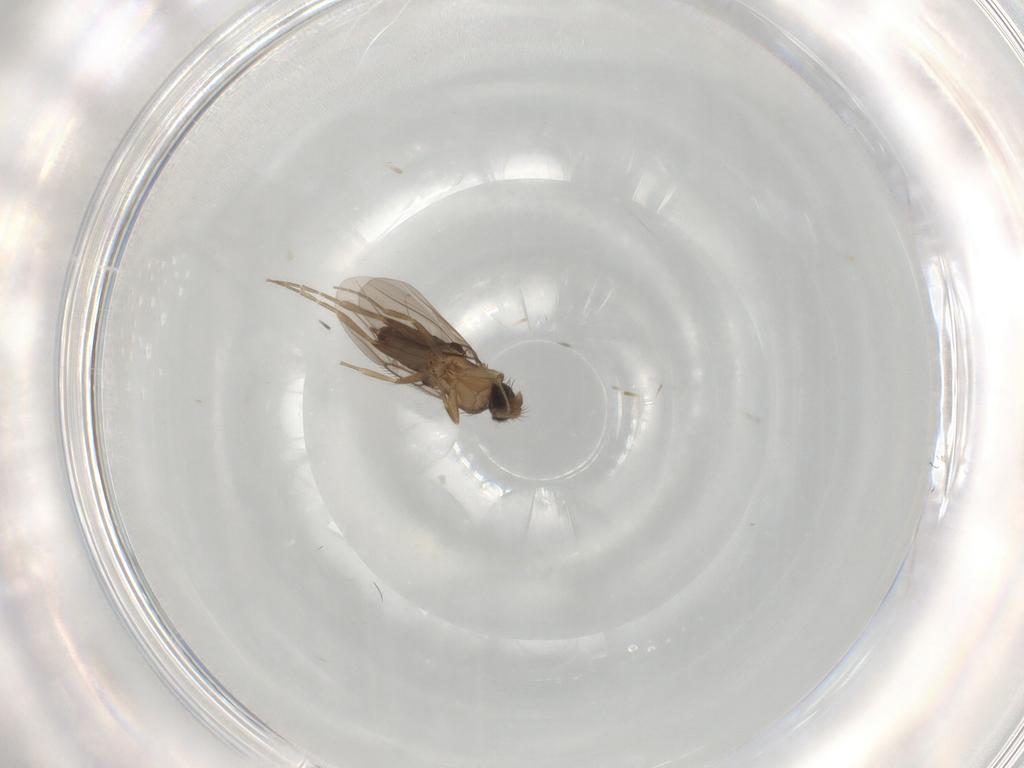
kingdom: Animalia
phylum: Arthropoda
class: Insecta
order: Diptera
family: Phoridae
